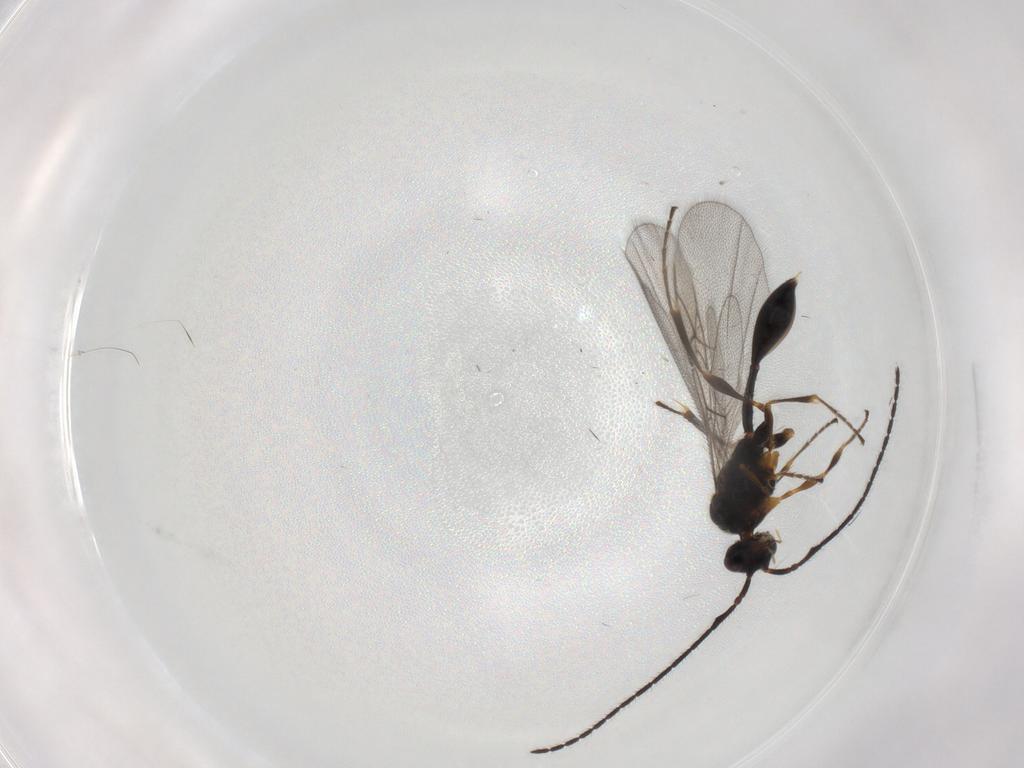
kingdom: Animalia
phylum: Arthropoda
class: Insecta
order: Hymenoptera
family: Diapriidae
